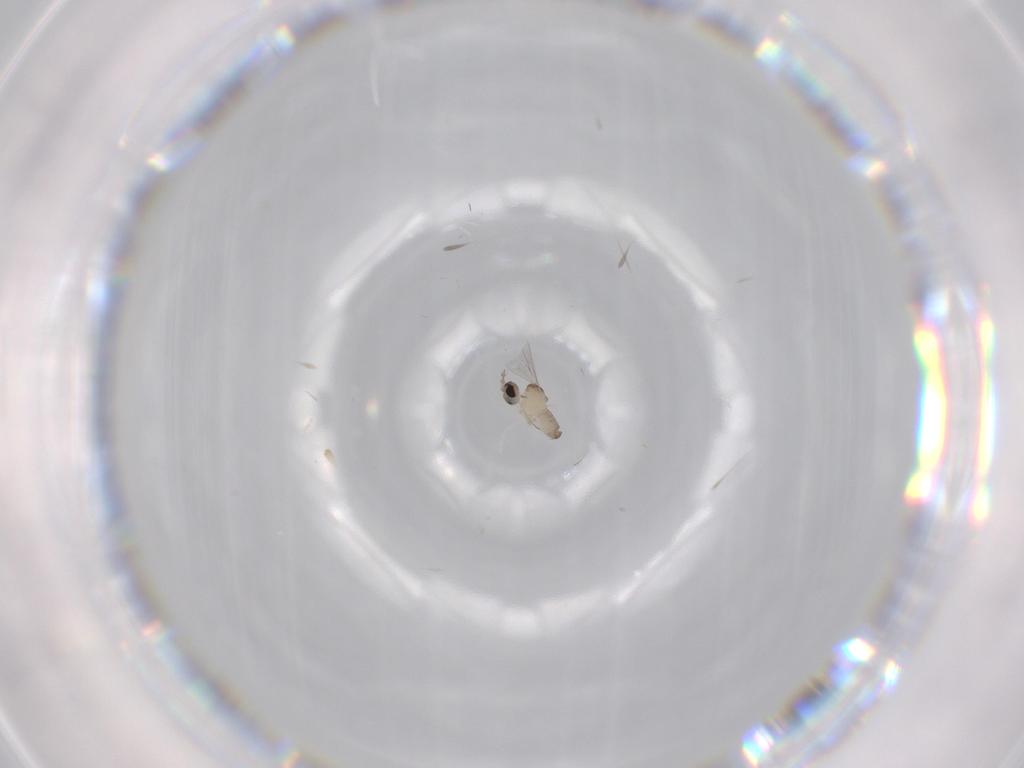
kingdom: Animalia
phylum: Arthropoda
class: Insecta
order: Diptera
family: Cecidomyiidae
